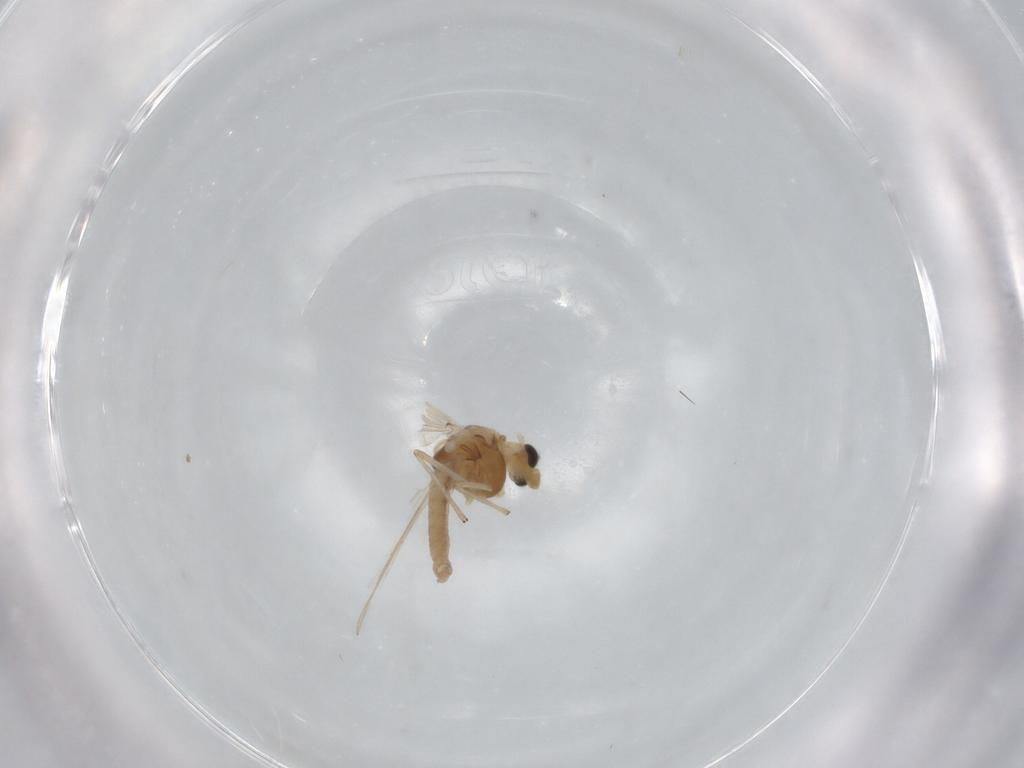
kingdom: Animalia
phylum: Arthropoda
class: Insecta
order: Diptera
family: Chironomidae
